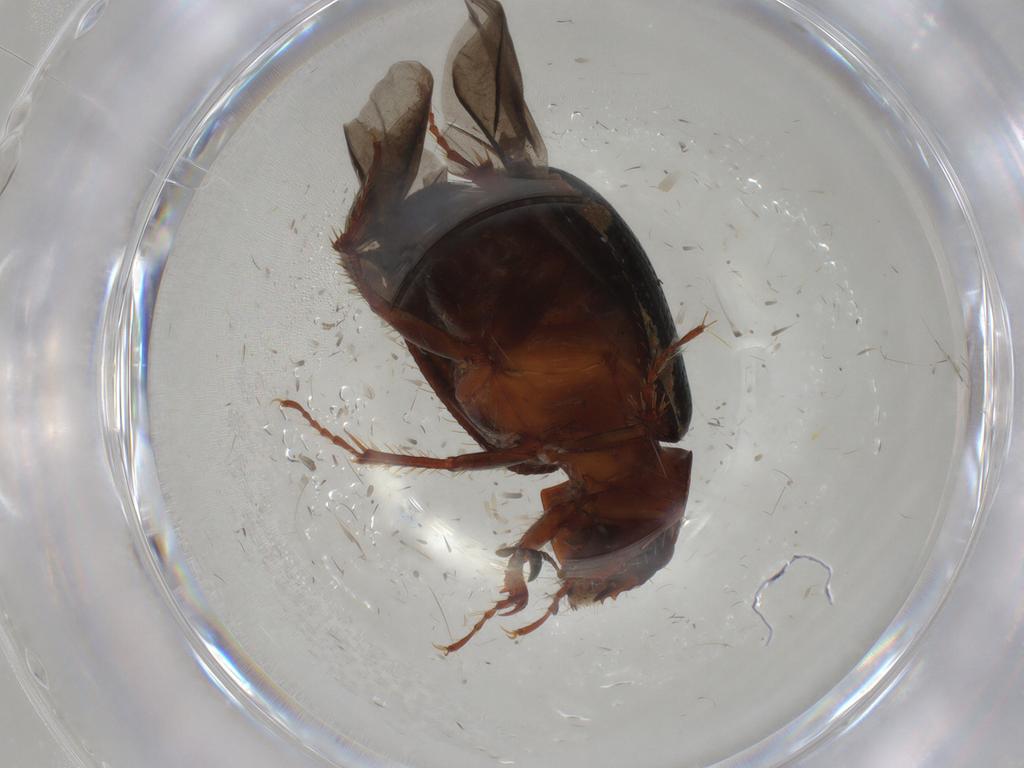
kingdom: Animalia
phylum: Arthropoda
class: Insecta
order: Coleoptera
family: Hybosoridae
